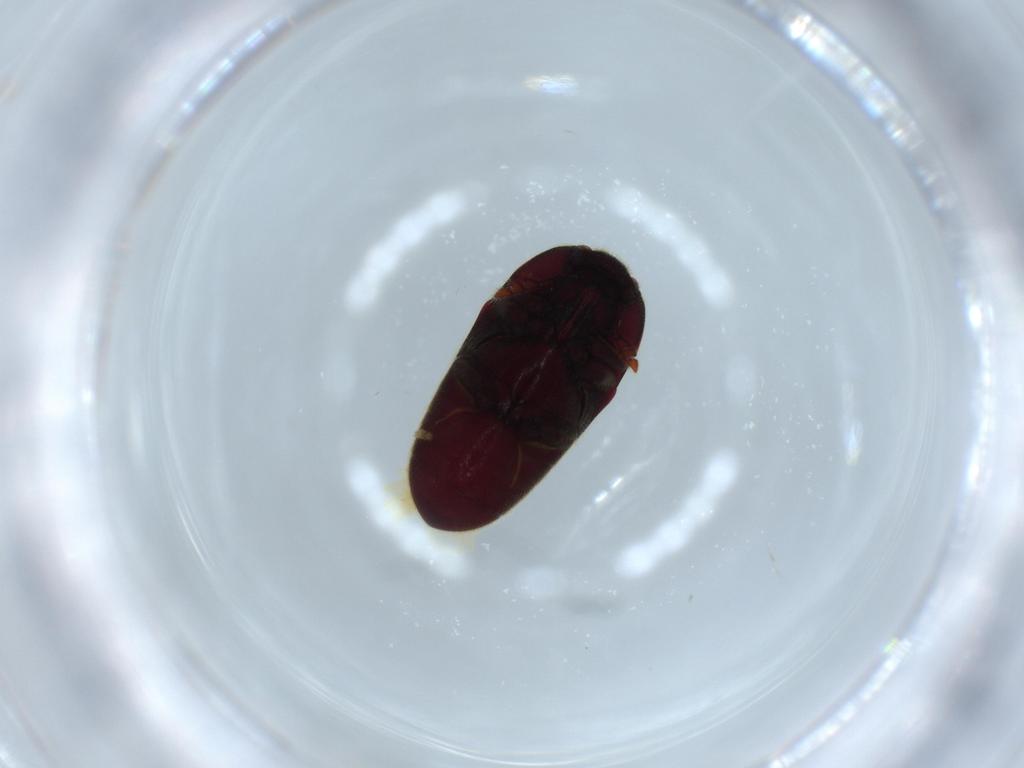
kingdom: Animalia
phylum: Arthropoda
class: Insecta
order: Coleoptera
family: Throscidae
